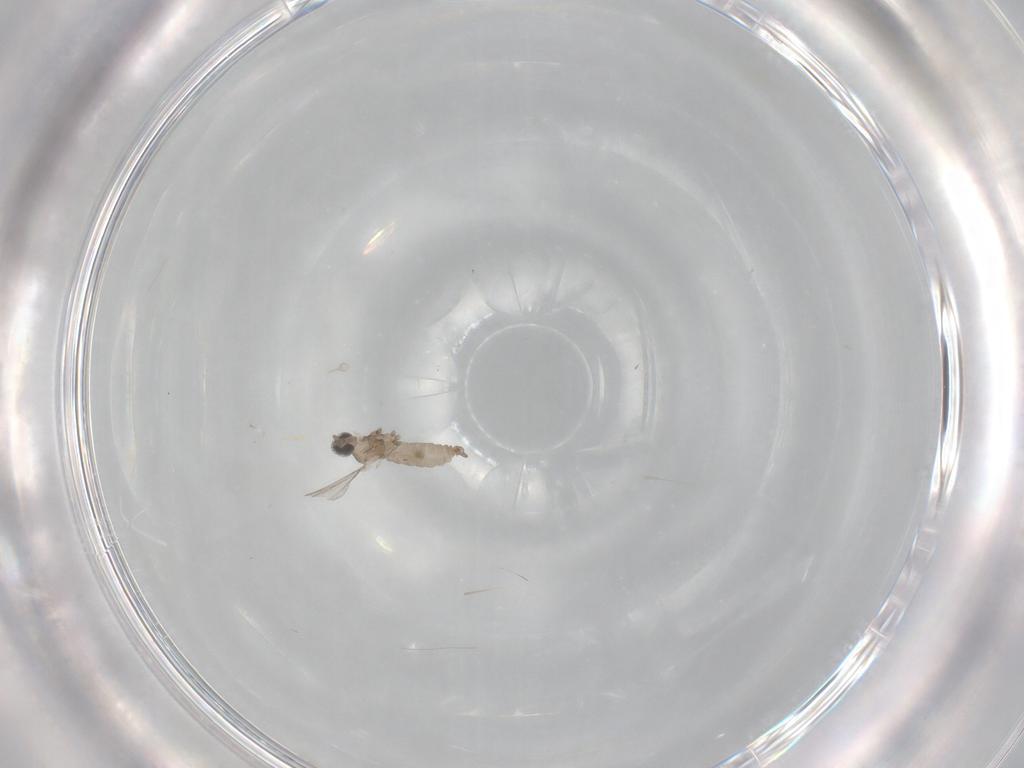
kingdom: Animalia
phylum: Arthropoda
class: Insecta
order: Diptera
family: Cecidomyiidae
